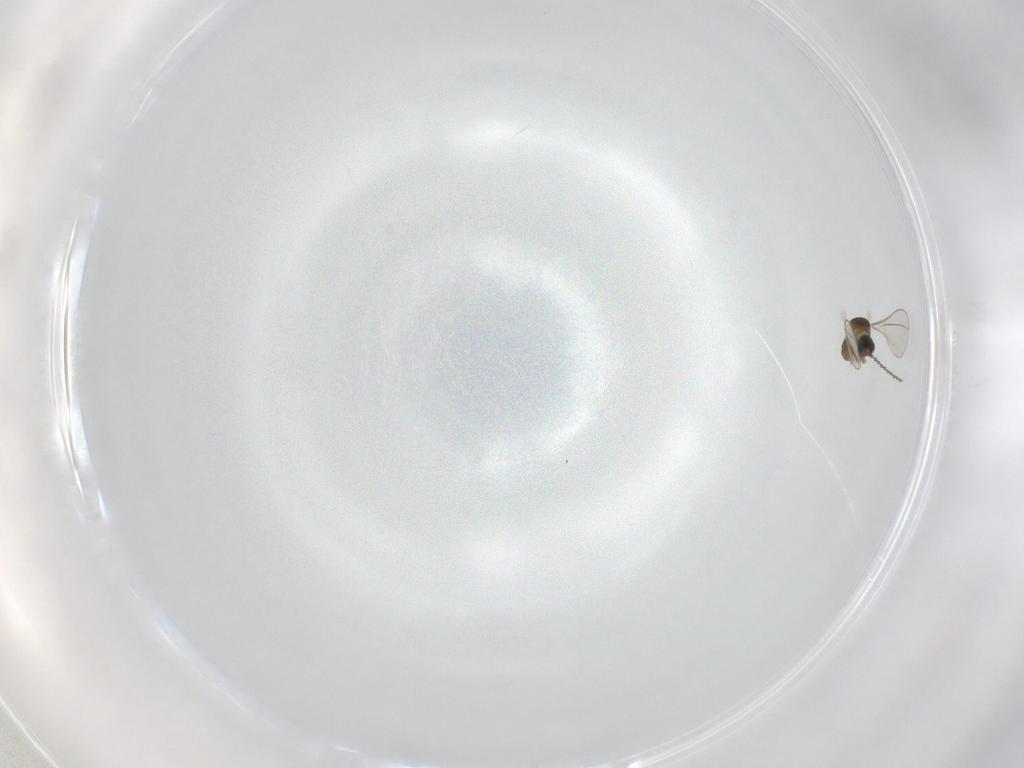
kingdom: Animalia
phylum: Arthropoda
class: Insecta
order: Diptera
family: Cecidomyiidae
